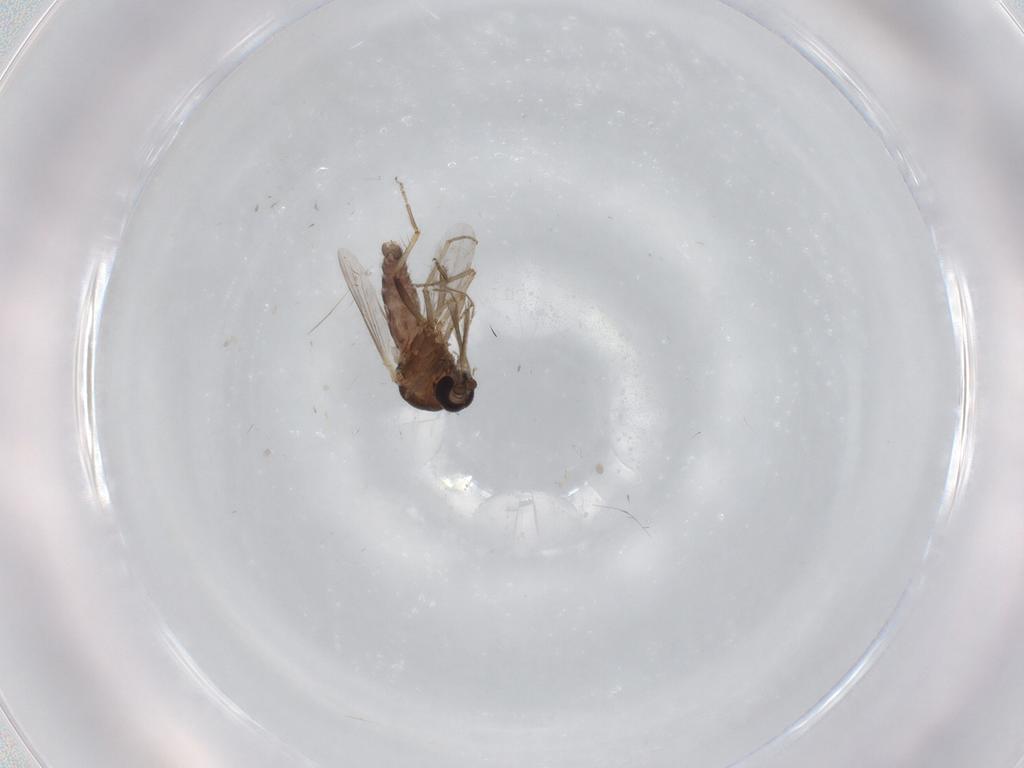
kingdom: Animalia
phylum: Arthropoda
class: Insecta
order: Diptera
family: Ceratopogonidae
